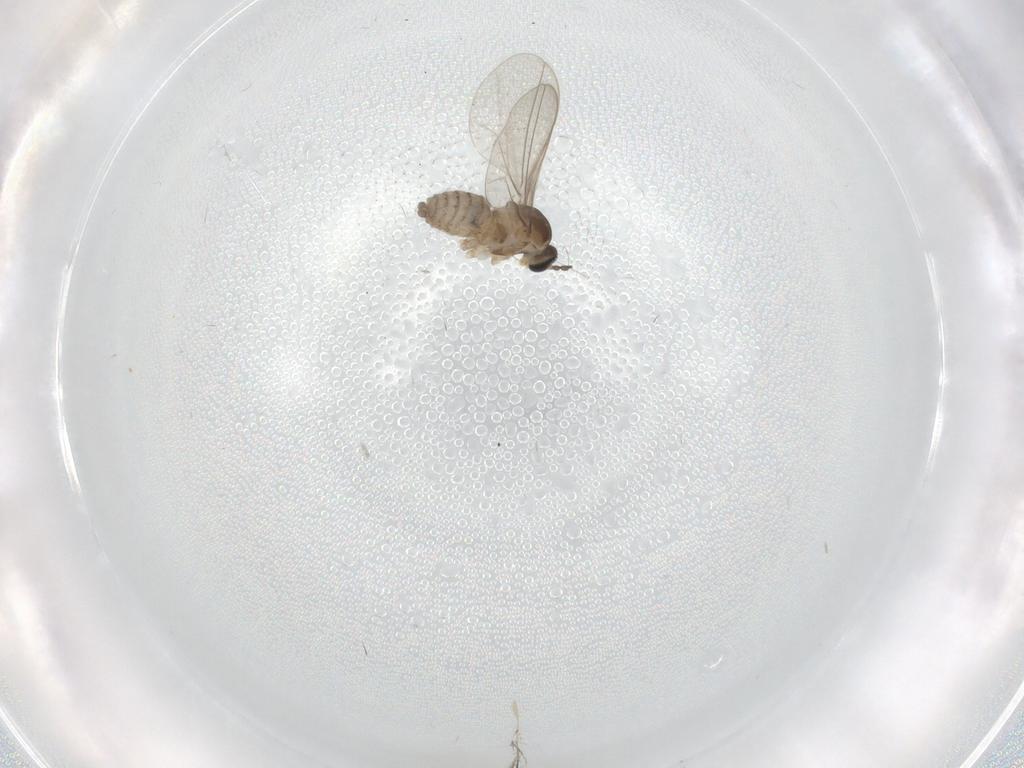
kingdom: Animalia
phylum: Arthropoda
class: Insecta
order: Diptera
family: Cecidomyiidae
